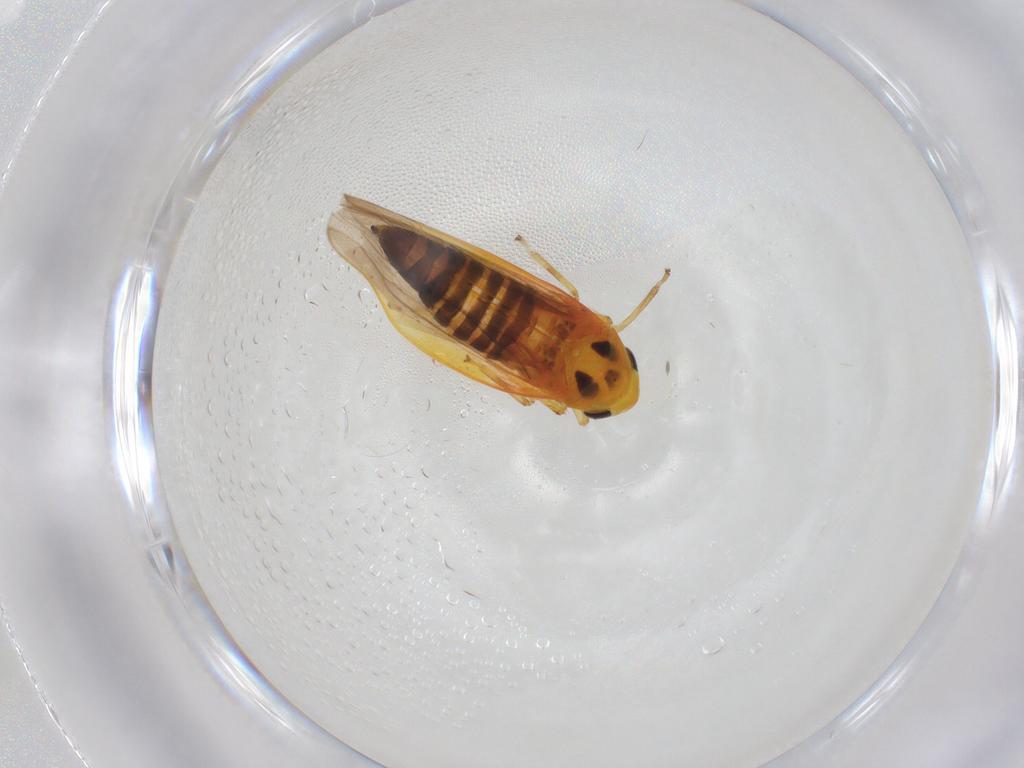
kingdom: Animalia
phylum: Arthropoda
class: Insecta
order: Hemiptera
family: Cicadellidae
